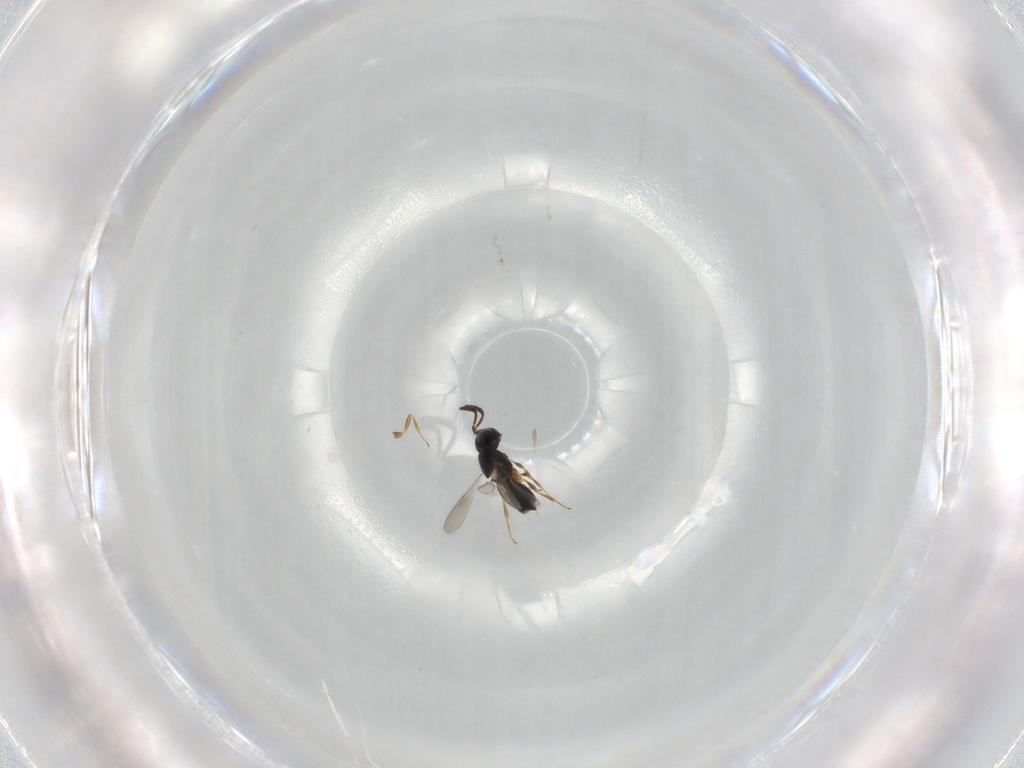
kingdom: Animalia
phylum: Arthropoda
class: Insecta
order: Hymenoptera
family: Scelionidae
